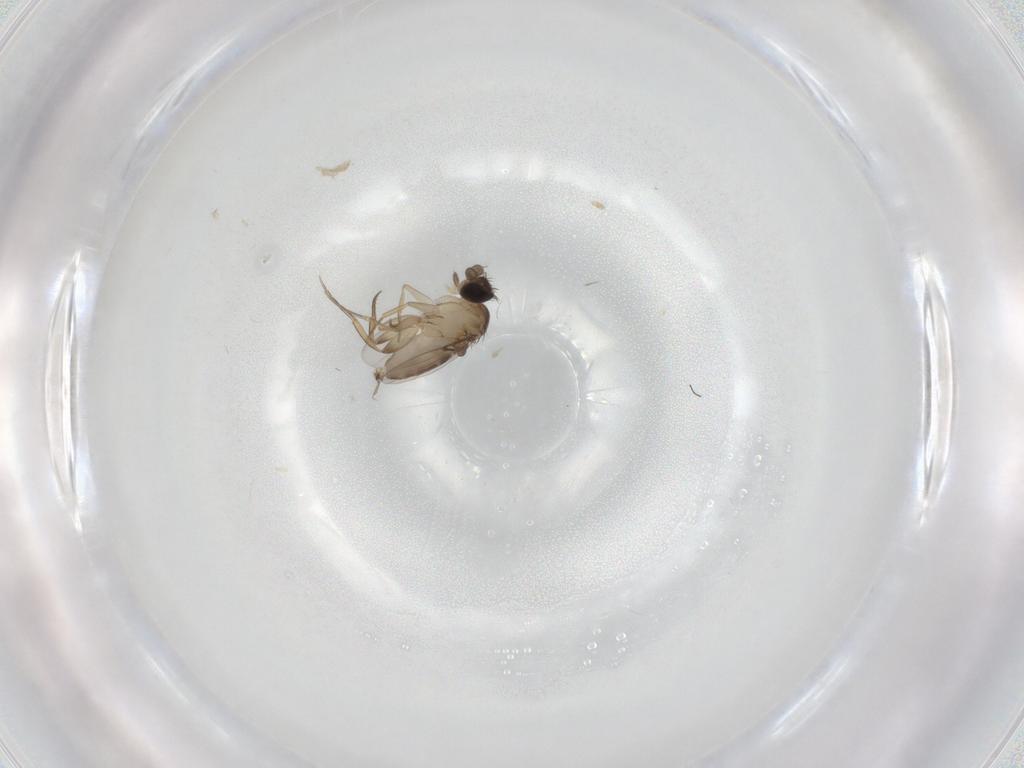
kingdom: Animalia
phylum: Arthropoda
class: Insecta
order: Diptera
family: Phoridae
